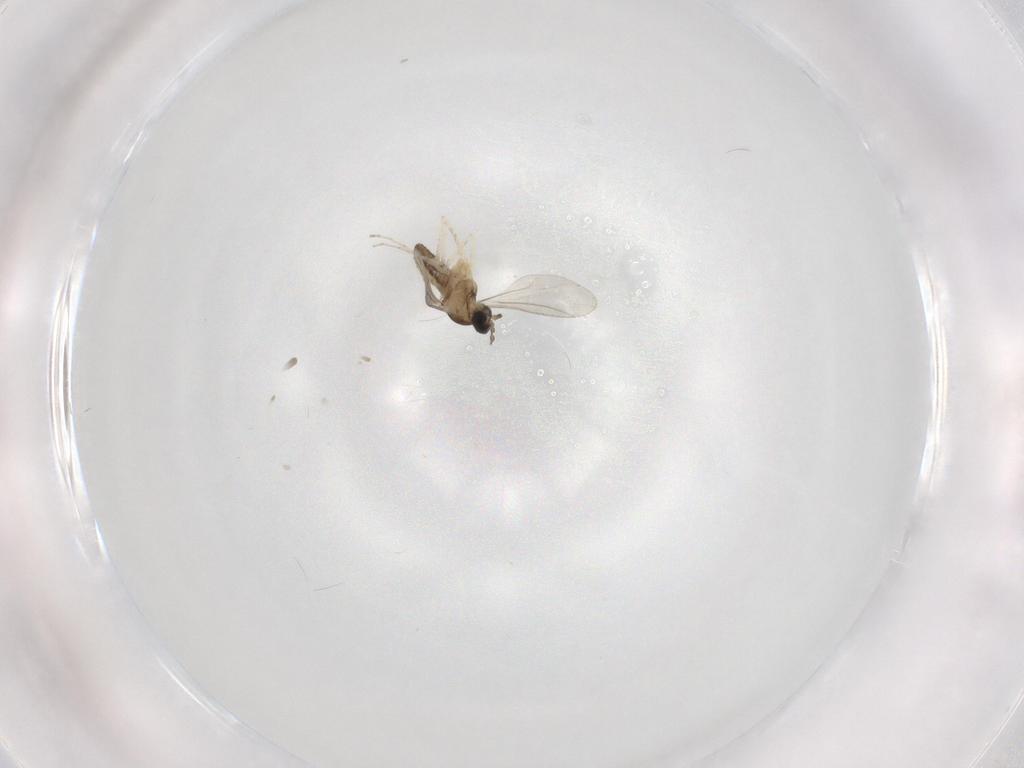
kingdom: Animalia
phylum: Arthropoda
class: Insecta
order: Diptera
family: Cecidomyiidae
